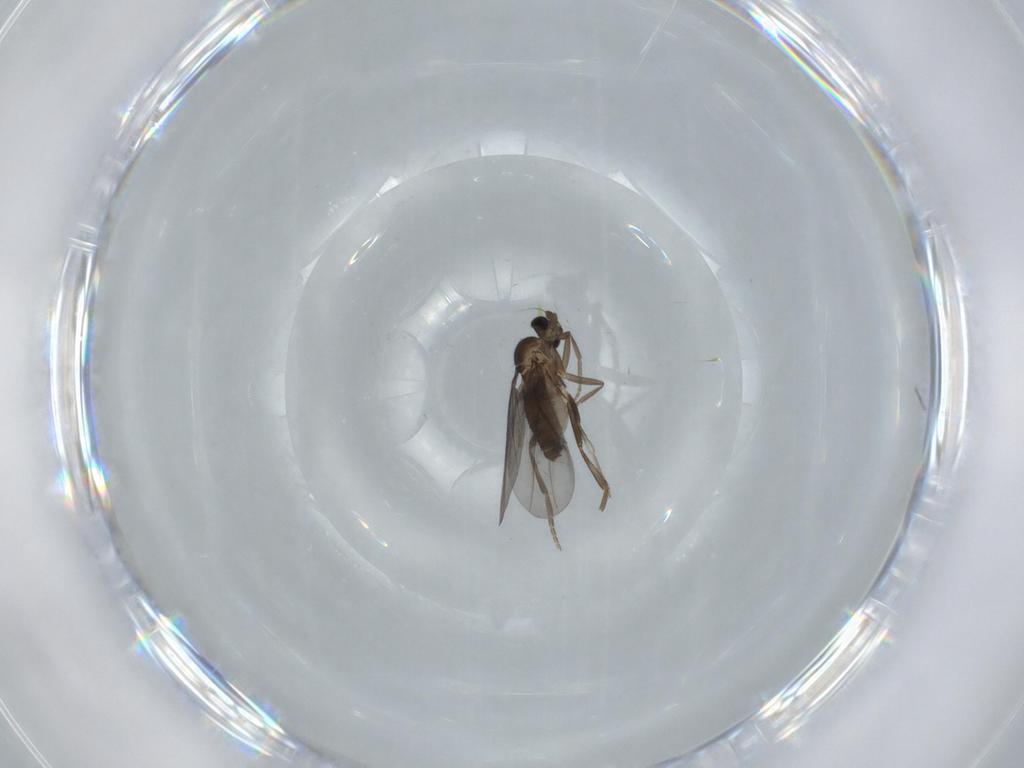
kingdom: Animalia
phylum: Arthropoda
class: Insecta
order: Diptera
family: Phoridae
